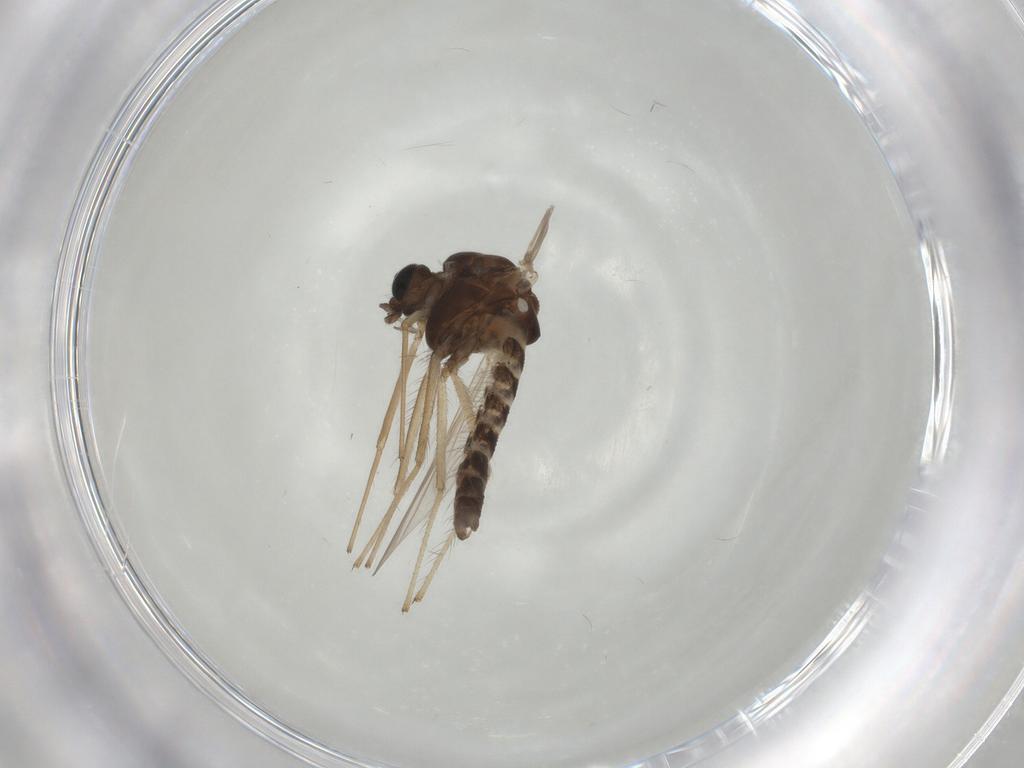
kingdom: Animalia
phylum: Arthropoda
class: Insecta
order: Diptera
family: Chironomidae
